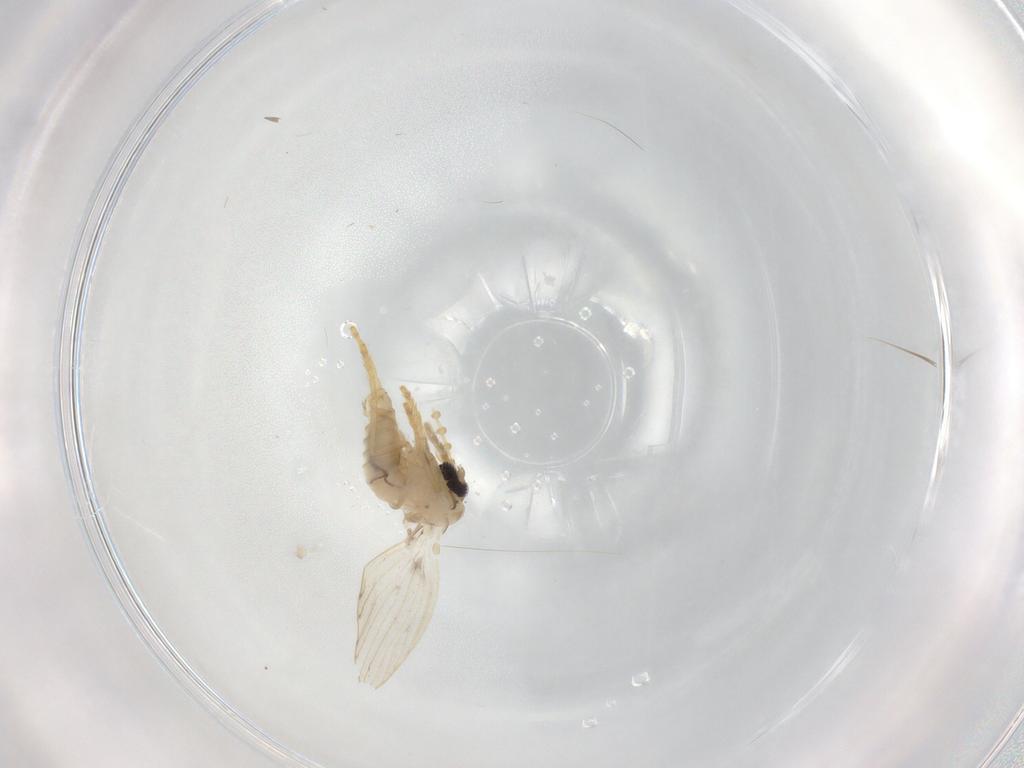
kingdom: Animalia
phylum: Arthropoda
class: Insecta
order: Diptera
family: Psychodidae
